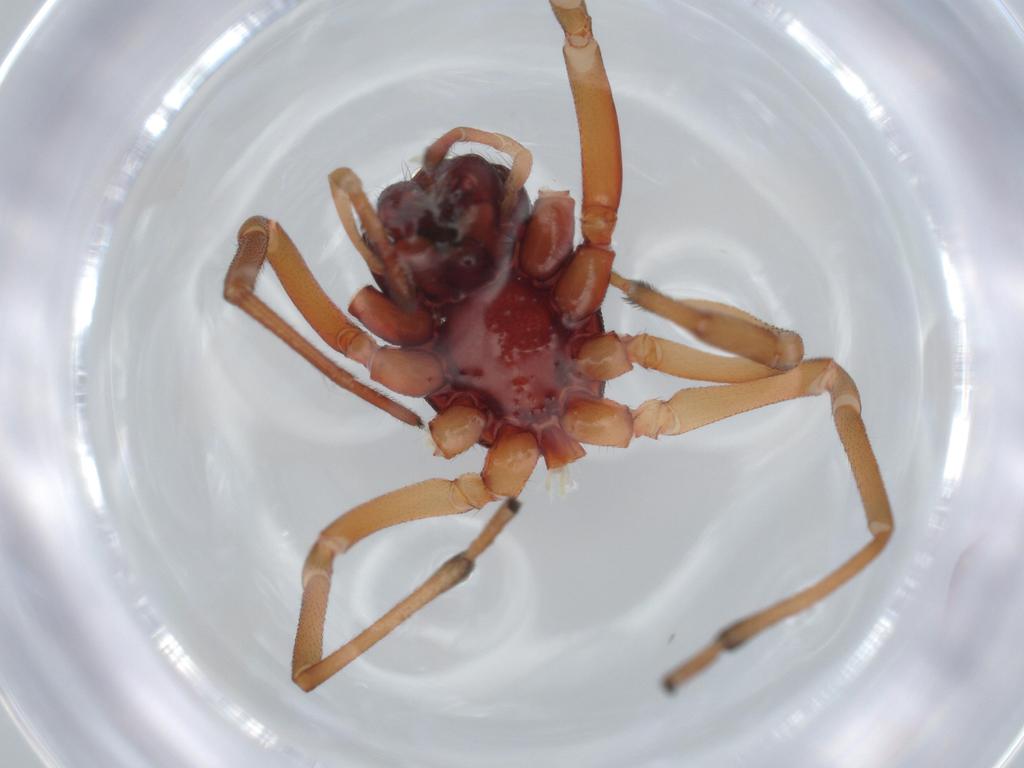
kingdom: Animalia
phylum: Arthropoda
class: Arachnida
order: Araneae
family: Trachelidae
